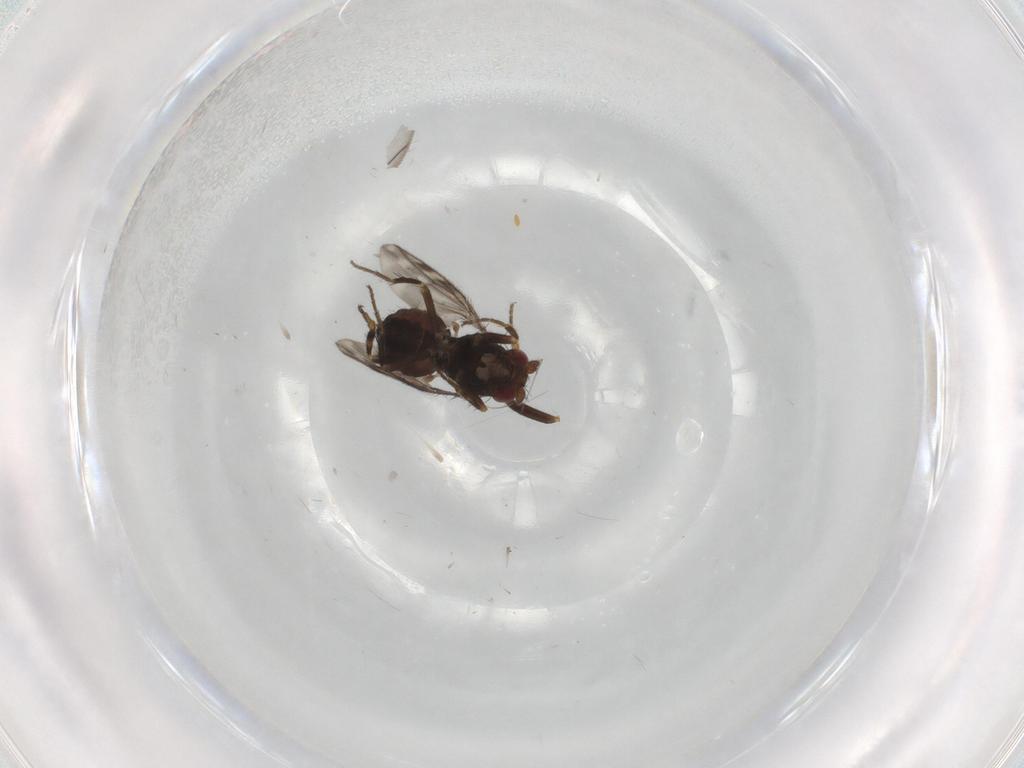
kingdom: Animalia
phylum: Arthropoda
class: Insecta
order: Diptera
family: Sphaeroceridae
